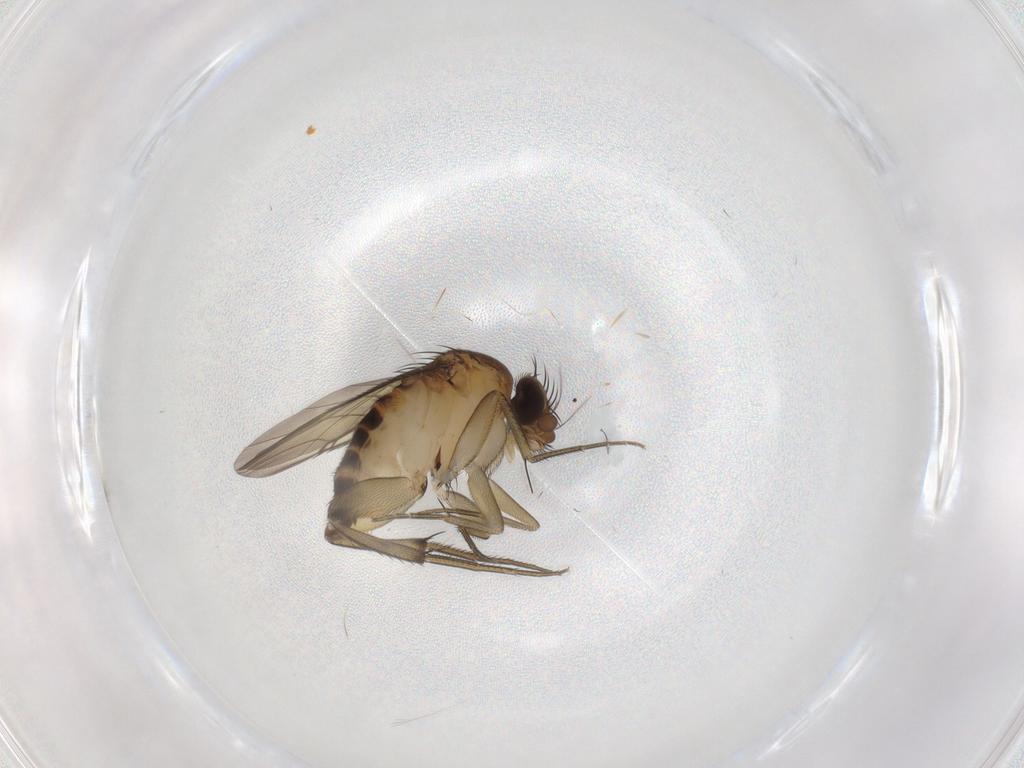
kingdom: Animalia
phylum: Arthropoda
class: Insecta
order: Diptera
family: Phoridae
